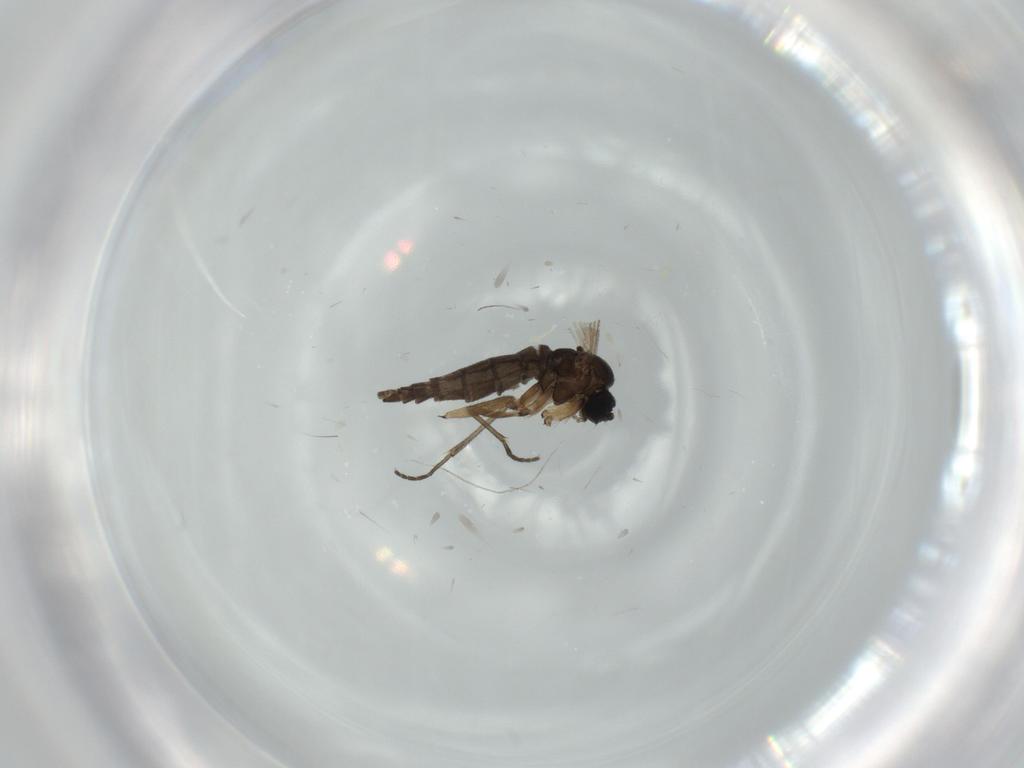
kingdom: Animalia
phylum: Arthropoda
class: Insecta
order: Diptera
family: Sciaridae
